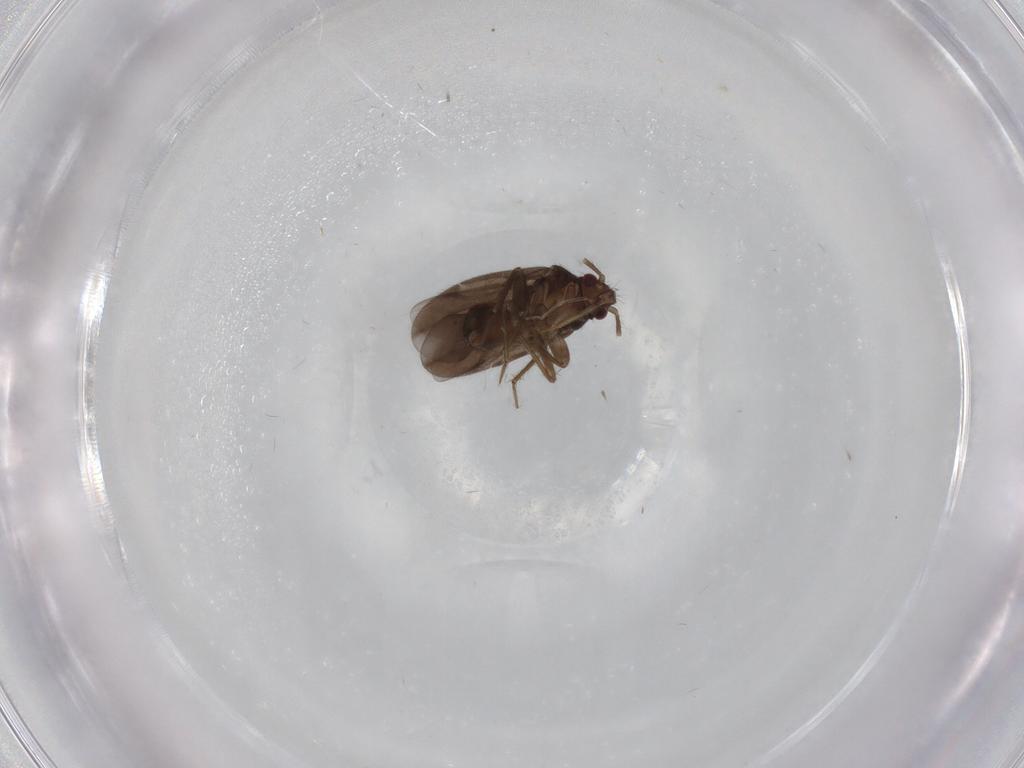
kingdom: Animalia
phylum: Arthropoda
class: Insecta
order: Hemiptera
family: Ceratocombidae
